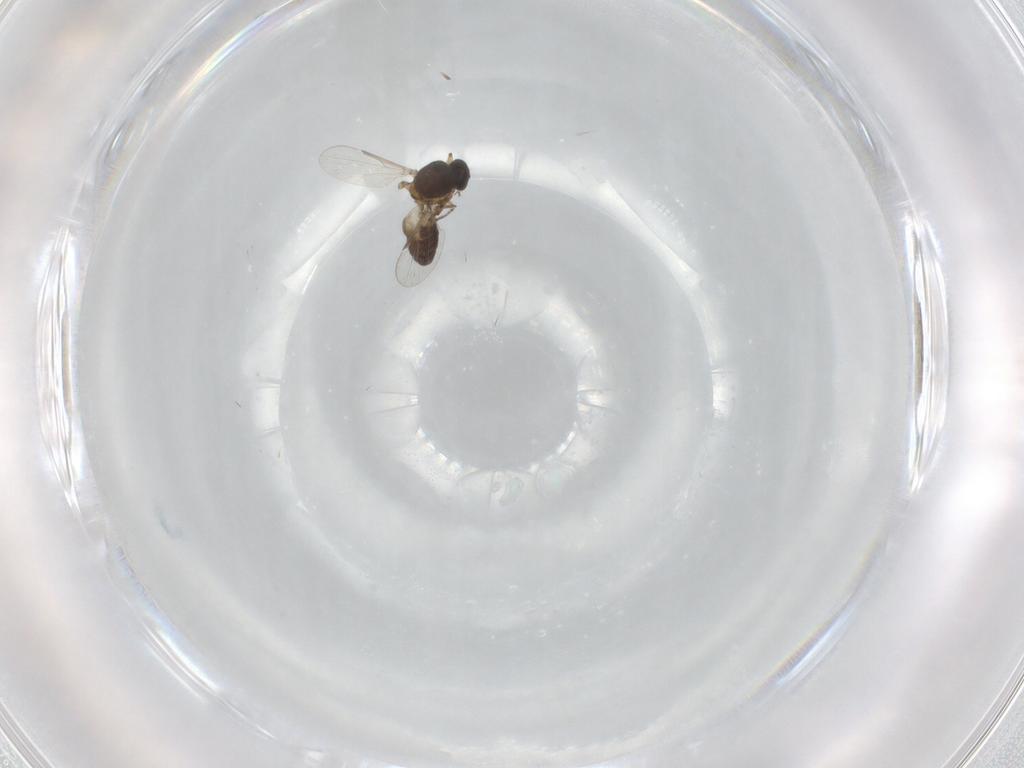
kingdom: Animalia
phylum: Arthropoda
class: Insecta
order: Diptera
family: Ceratopogonidae
